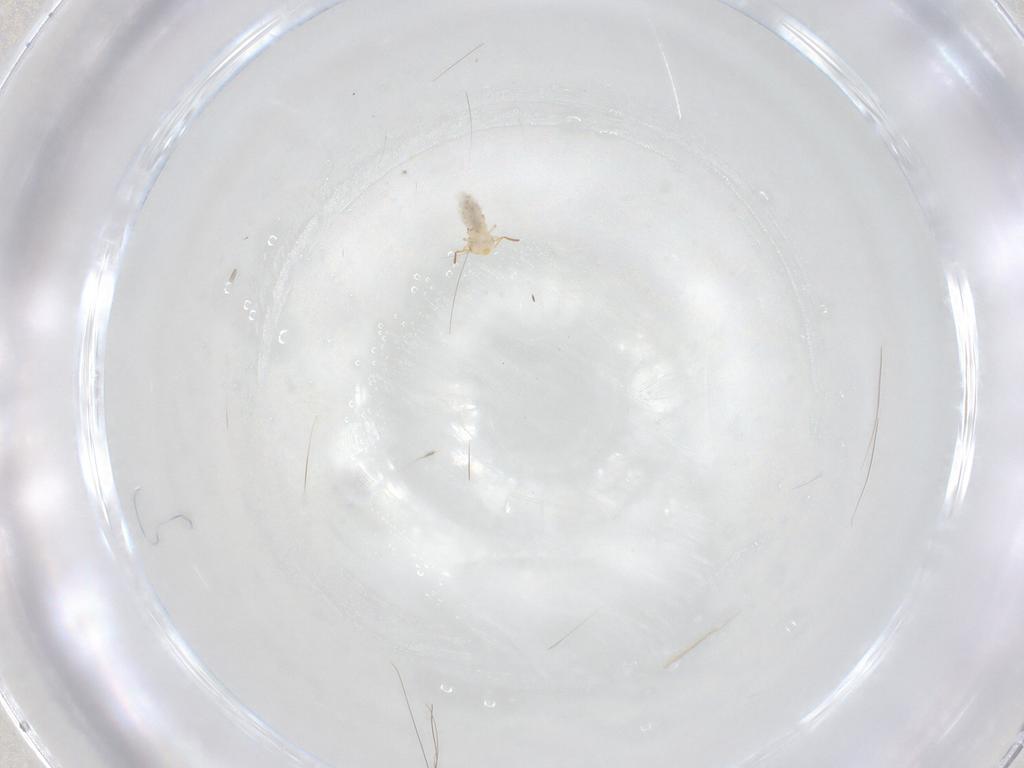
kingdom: Animalia
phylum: Arthropoda
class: Collembola
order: Symphypleona
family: Bourletiellidae
